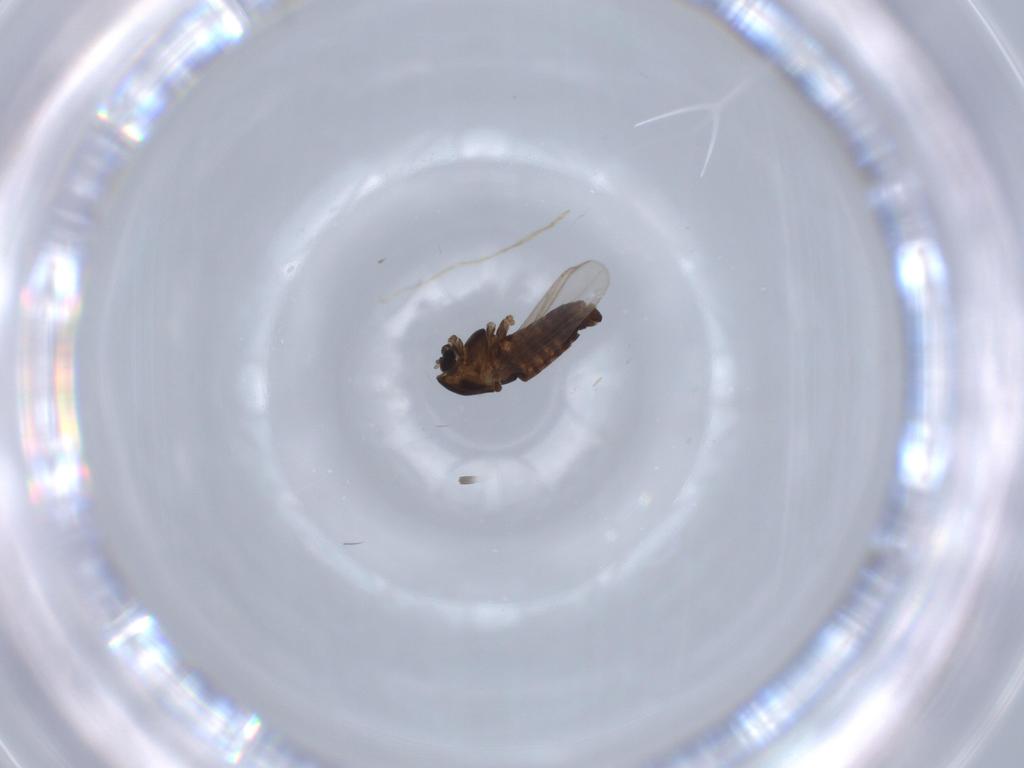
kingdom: Animalia
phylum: Arthropoda
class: Insecta
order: Diptera
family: Chironomidae
